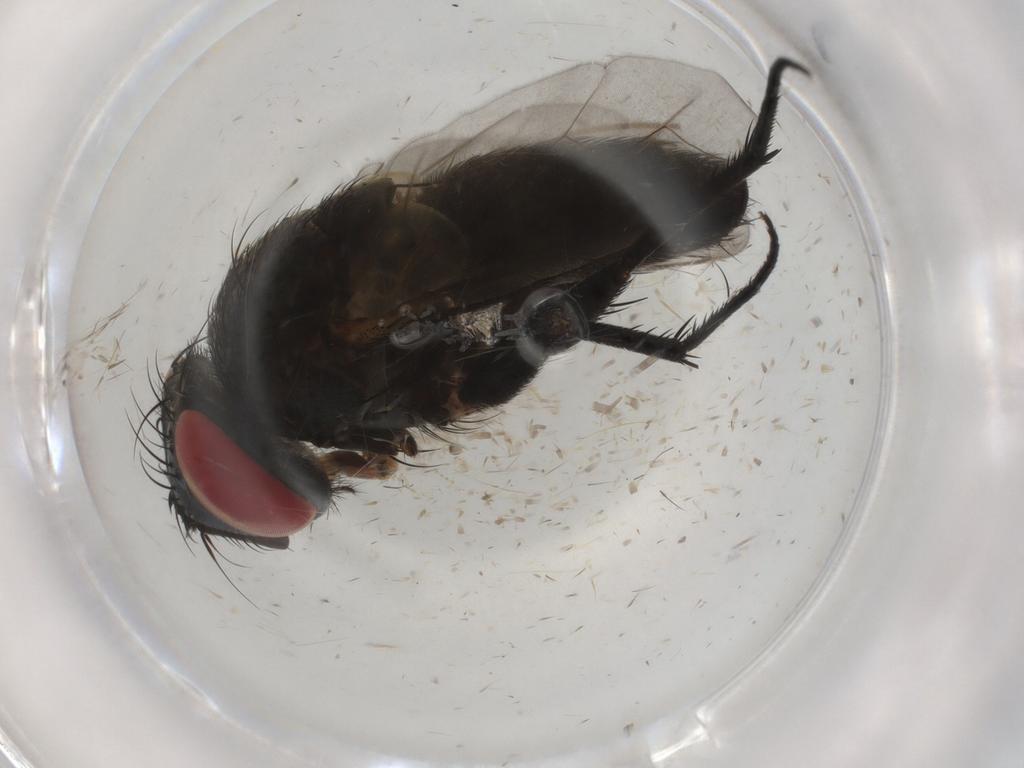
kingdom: Animalia
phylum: Arthropoda
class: Insecta
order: Diptera
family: Sarcophagidae
